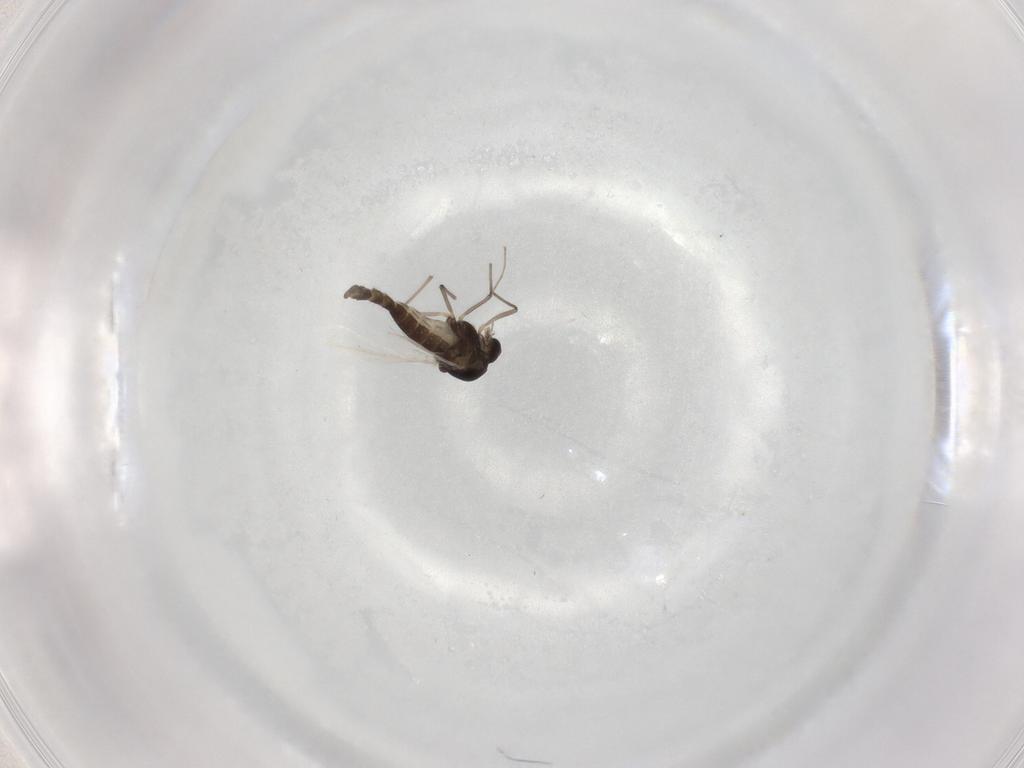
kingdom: Animalia
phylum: Arthropoda
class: Insecta
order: Diptera
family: Chironomidae
